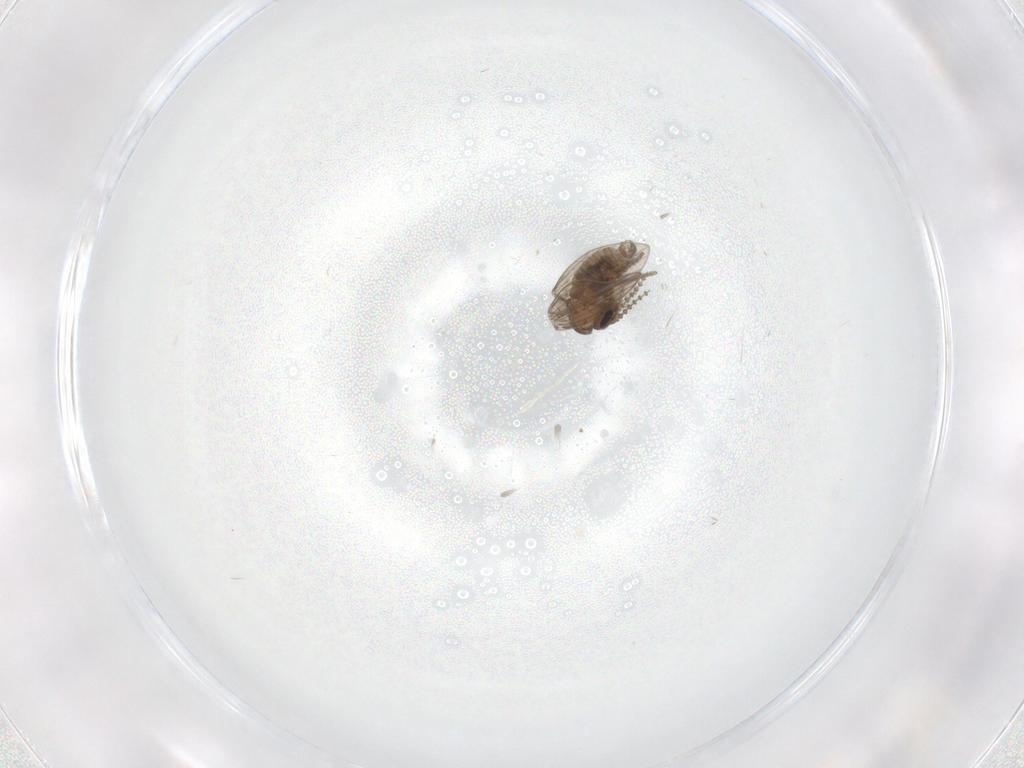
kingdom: Animalia
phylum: Arthropoda
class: Insecta
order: Diptera
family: Psychodidae
